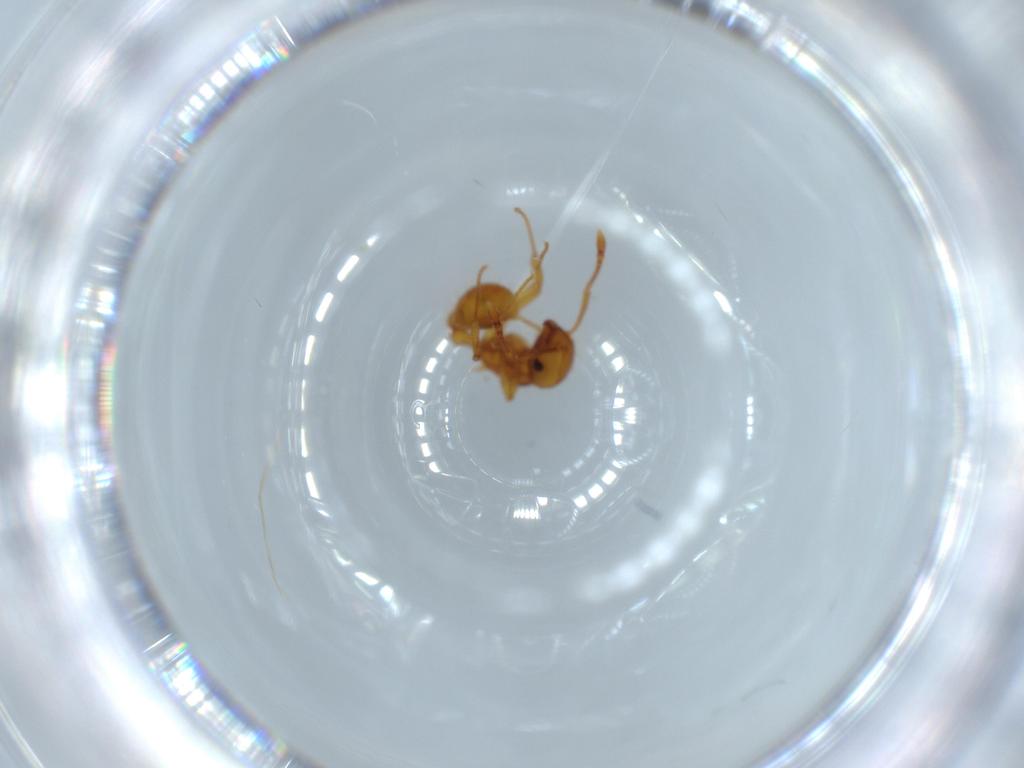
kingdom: Animalia
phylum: Arthropoda
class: Insecta
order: Hymenoptera
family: Formicidae
